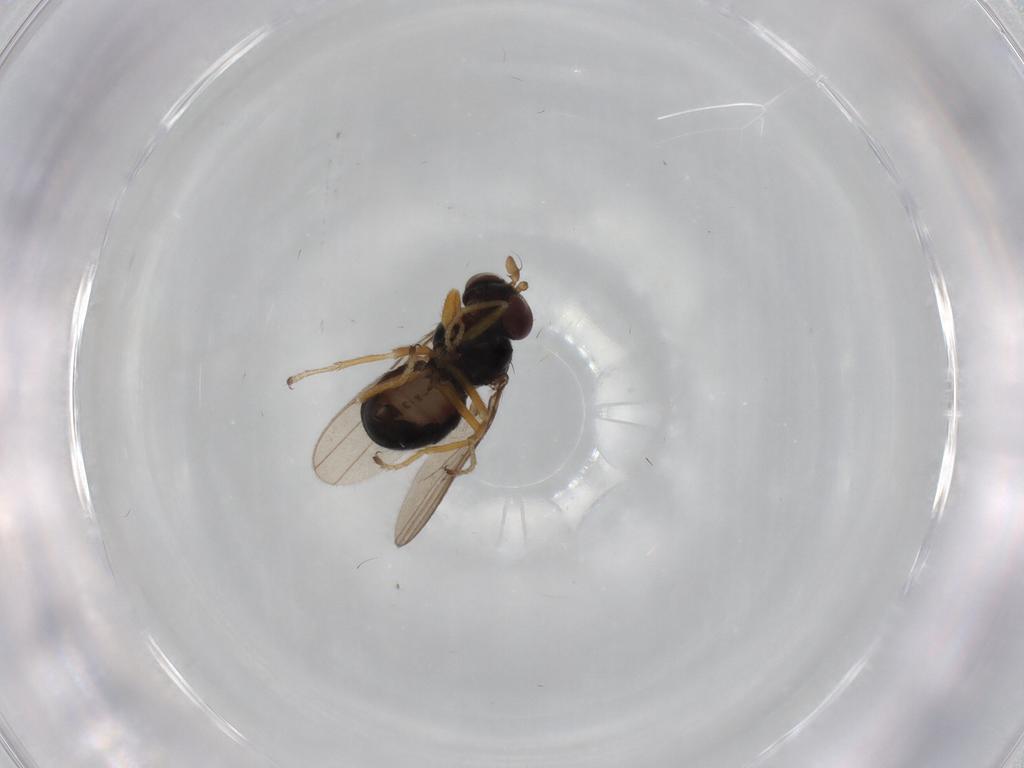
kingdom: Animalia
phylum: Arthropoda
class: Insecta
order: Diptera
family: Ephydridae
